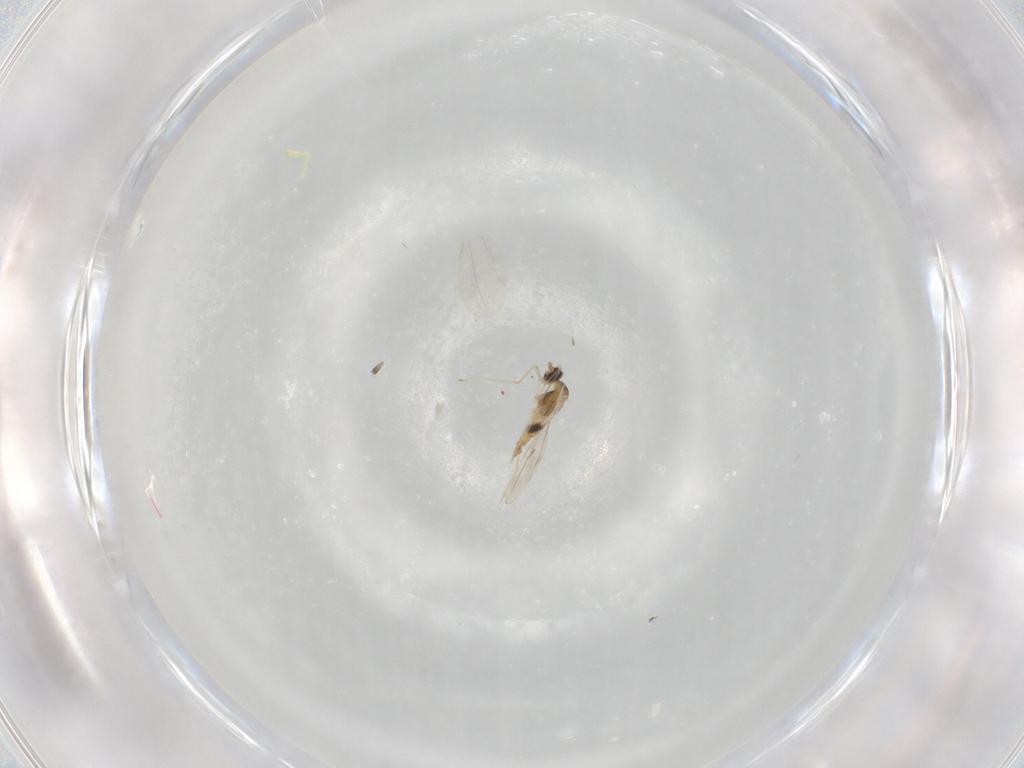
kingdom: Animalia
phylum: Arthropoda
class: Insecta
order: Diptera
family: Cecidomyiidae
